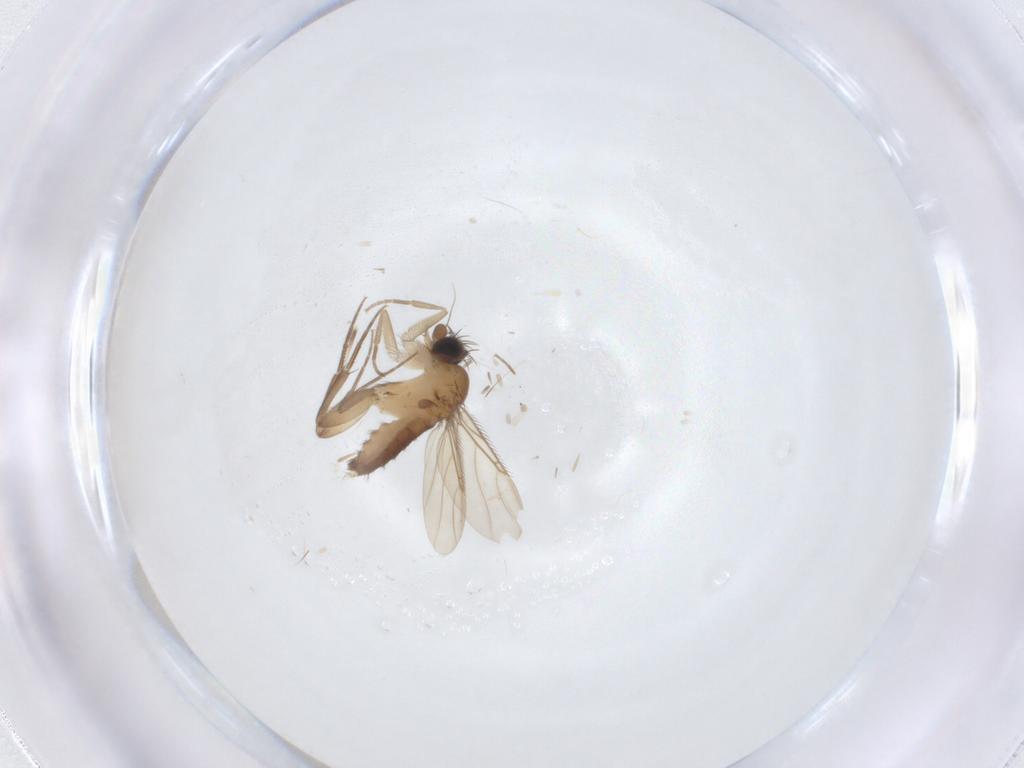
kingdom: Animalia
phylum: Arthropoda
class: Insecta
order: Diptera
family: Phoridae
